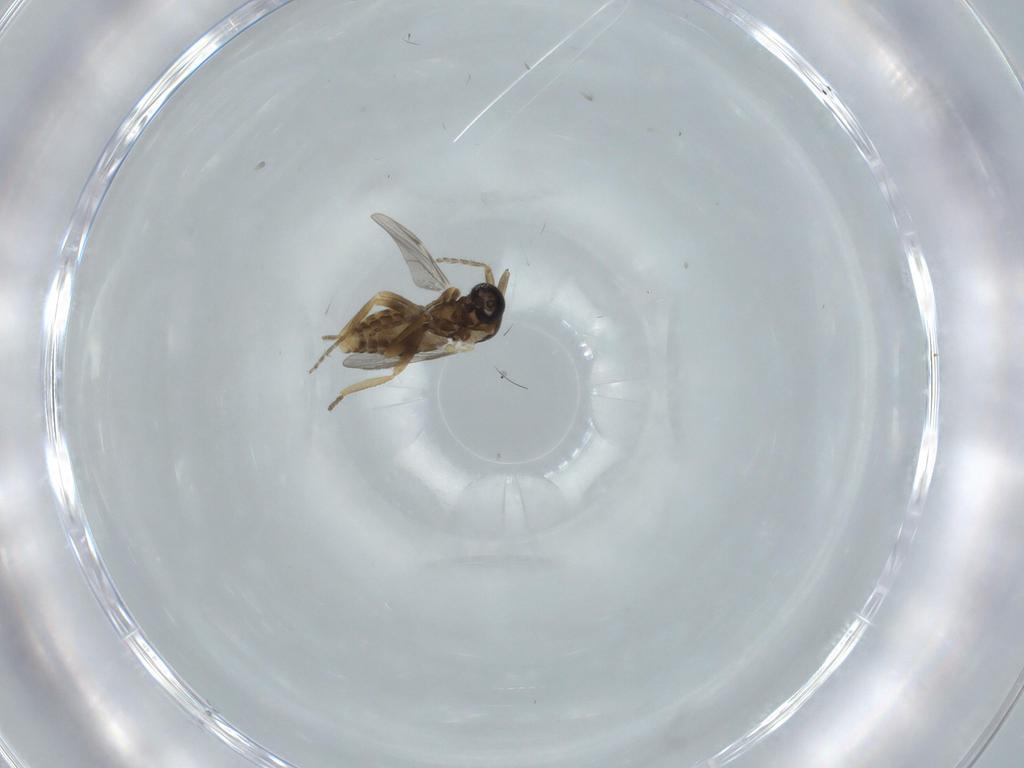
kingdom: Animalia
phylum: Arthropoda
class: Insecta
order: Diptera
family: Ceratopogonidae
